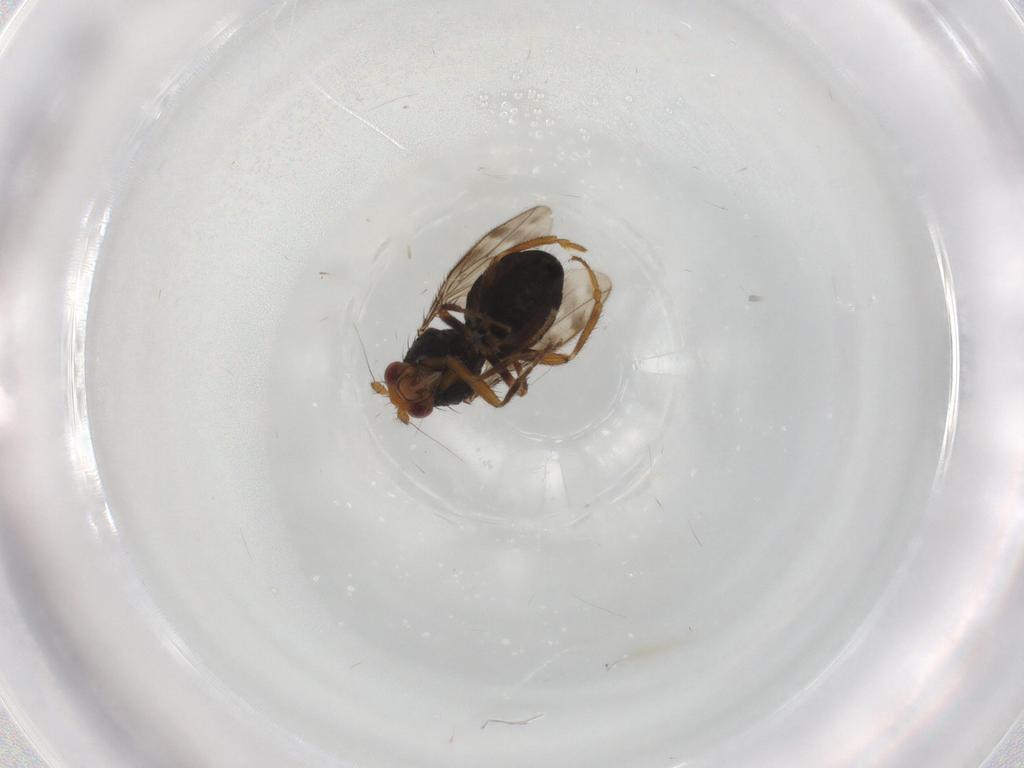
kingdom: Animalia
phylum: Arthropoda
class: Insecta
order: Diptera
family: Sphaeroceridae
